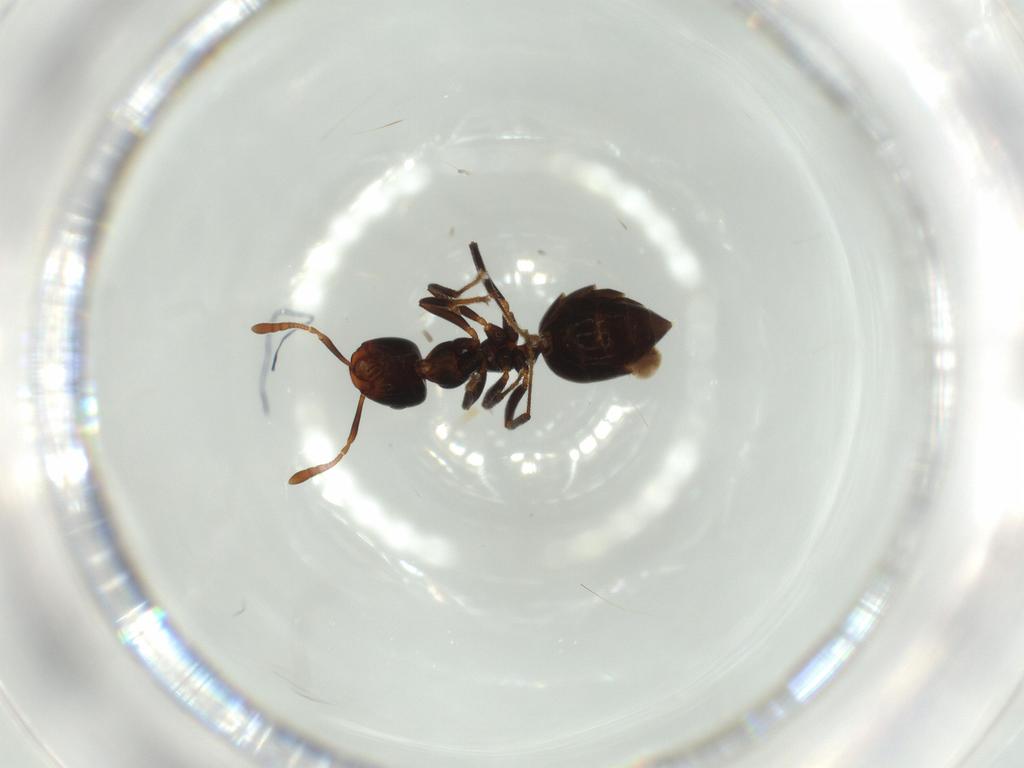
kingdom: Animalia
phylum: Arthropoda
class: Insecta
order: Hymenoptera
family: Formicidae
